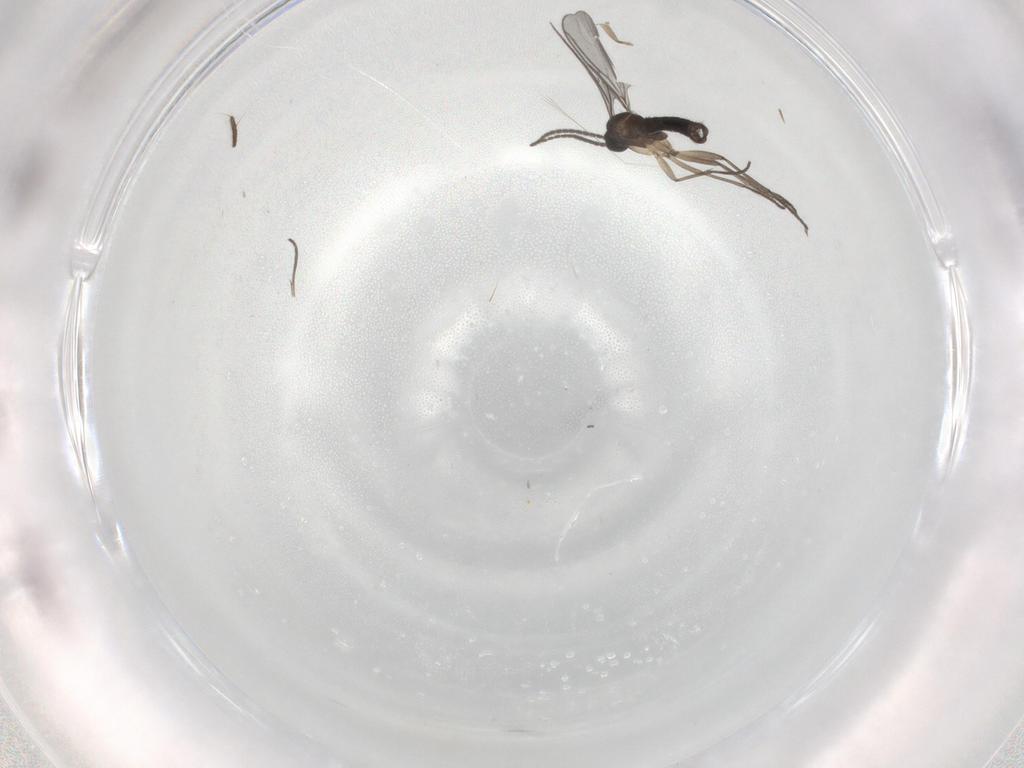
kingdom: Animalia
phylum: Arthropoda
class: Insecta
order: Diptera
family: Sciaridae
